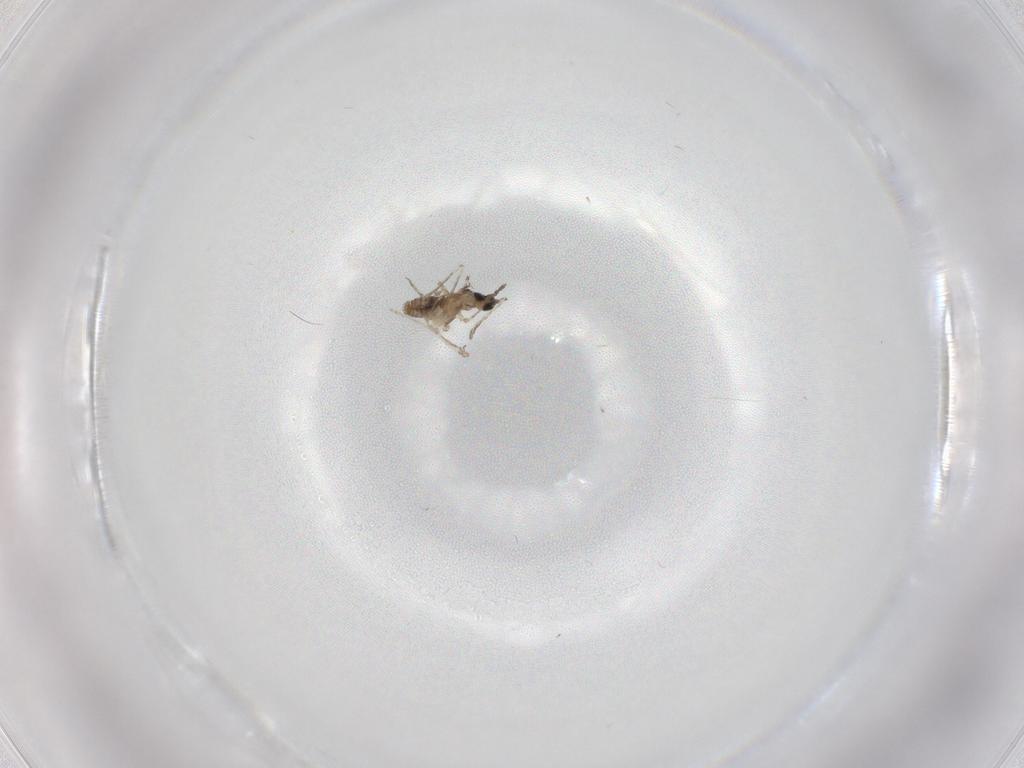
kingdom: Animalia
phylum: Arthropoda
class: Insecta
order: Diptera
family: Cecidomyiidae
